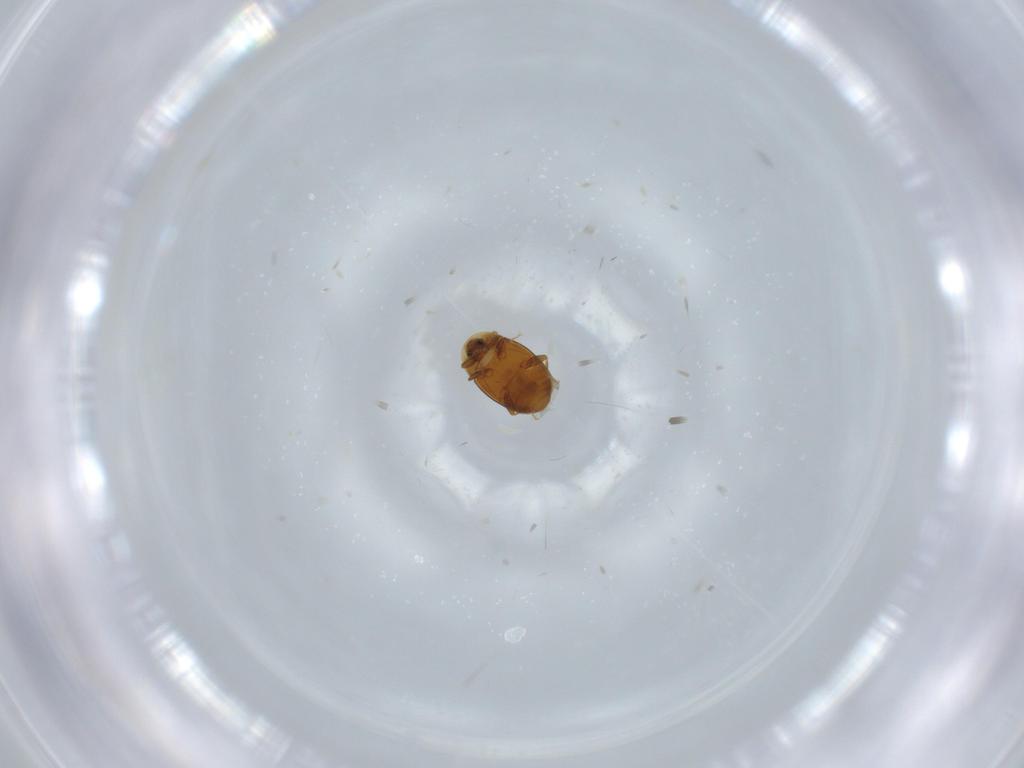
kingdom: Animalia
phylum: Arthropoda
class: Insecta
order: Coleoptera
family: Corylophidae
